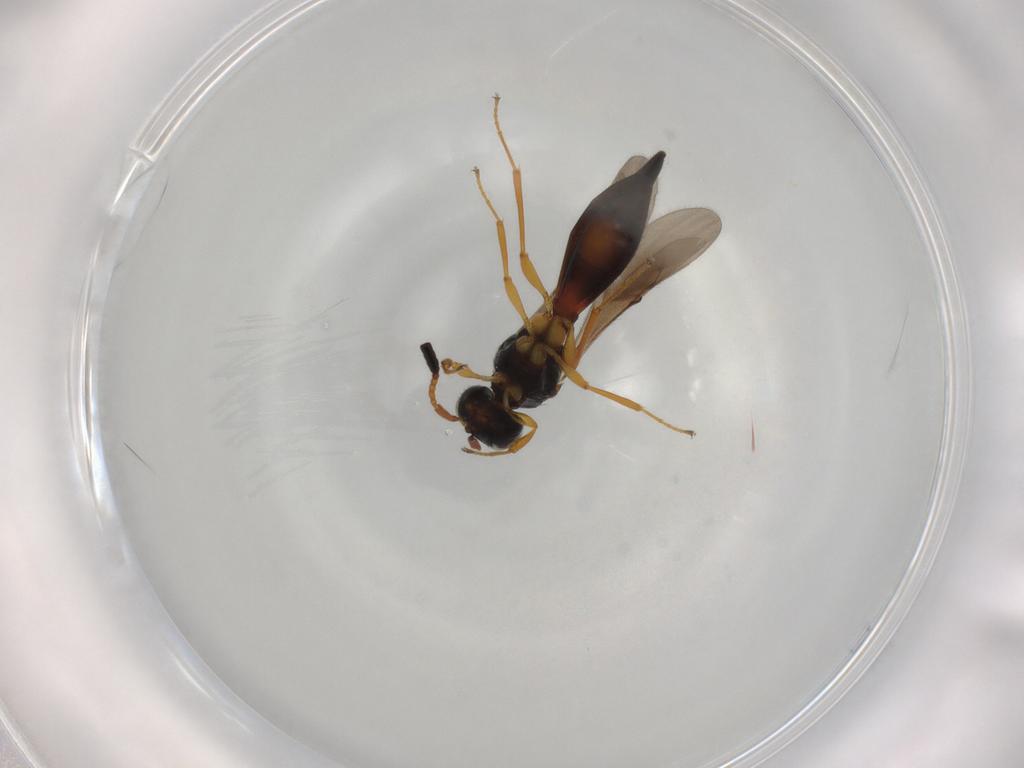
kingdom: Animalia
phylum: Arthropoda
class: Insecta
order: Hymenoptera
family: Scelionidae
